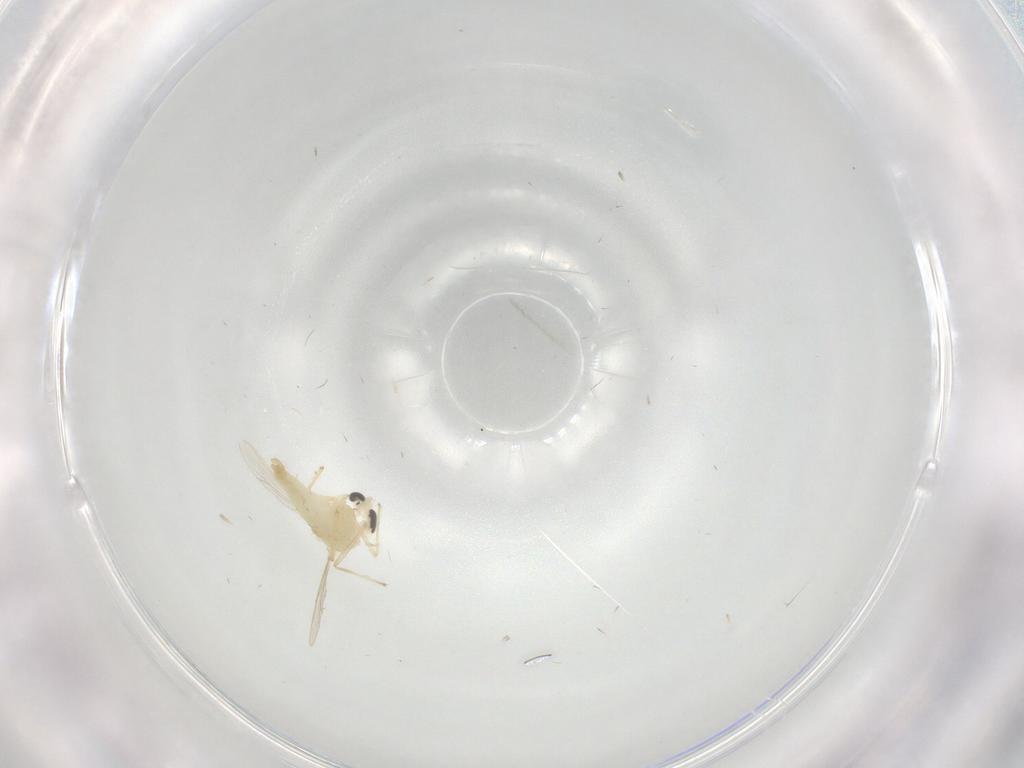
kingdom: Animalia
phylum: Arthropoda
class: Insecta
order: Diptera
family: Chironomidae
